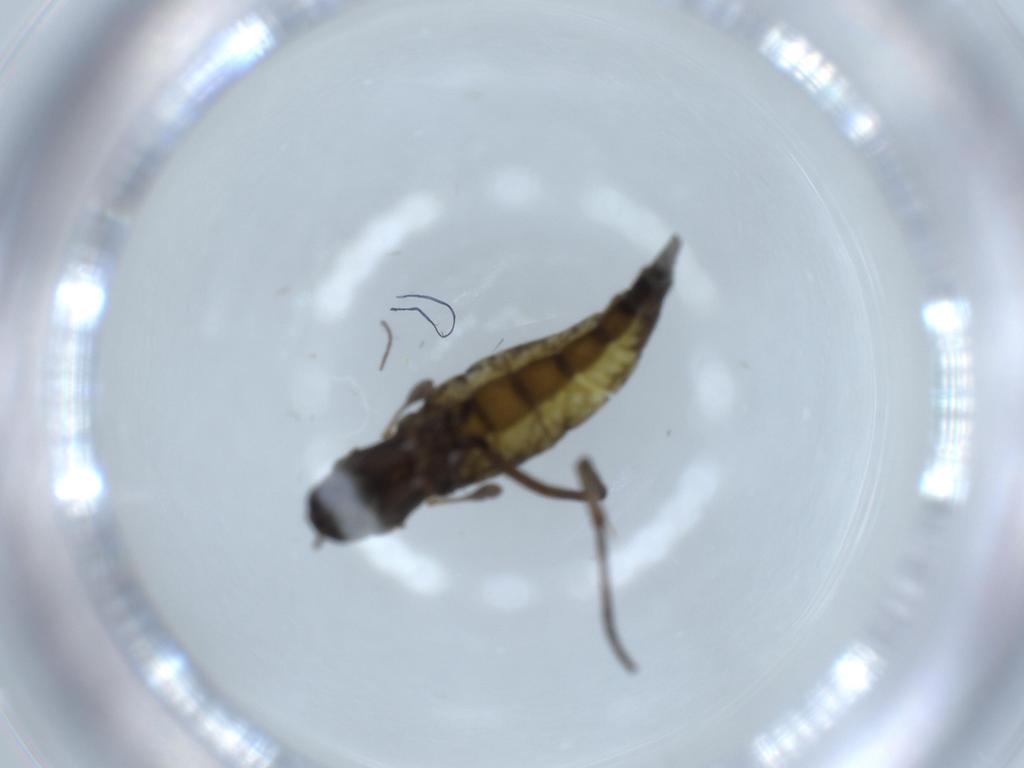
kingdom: Animalia
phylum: Arthropoda
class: Insecta
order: Diptera
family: Sciaridae
